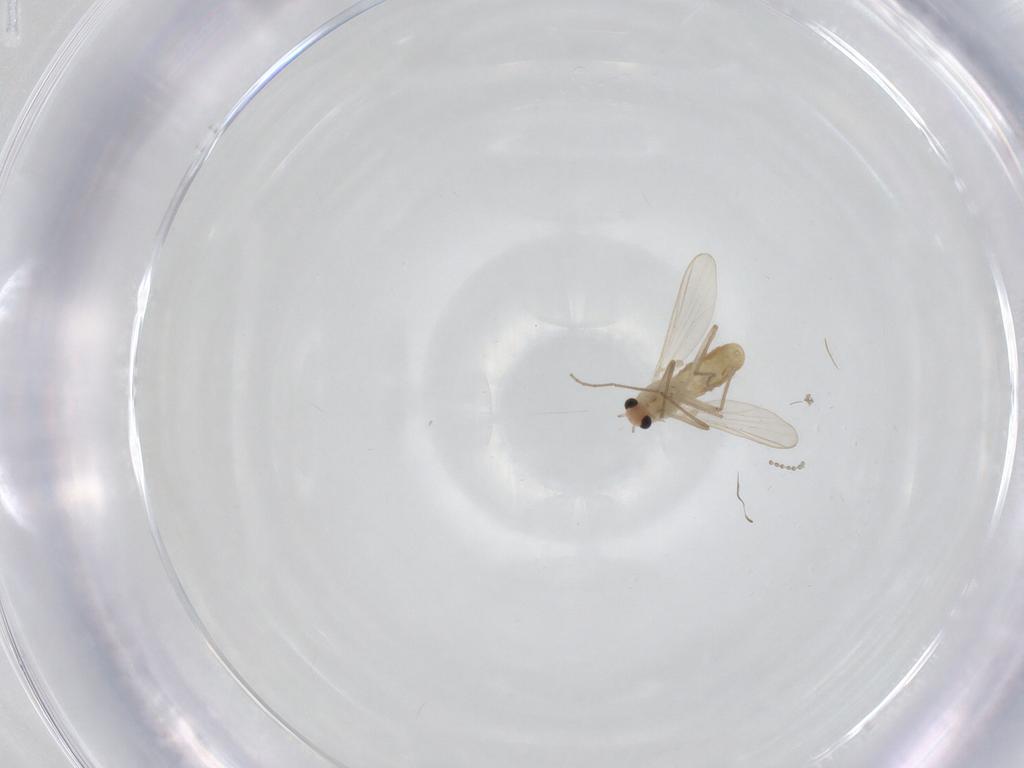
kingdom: Animalia
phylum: Arthropoda
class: Insecta
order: Diptera
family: Chironomidae
